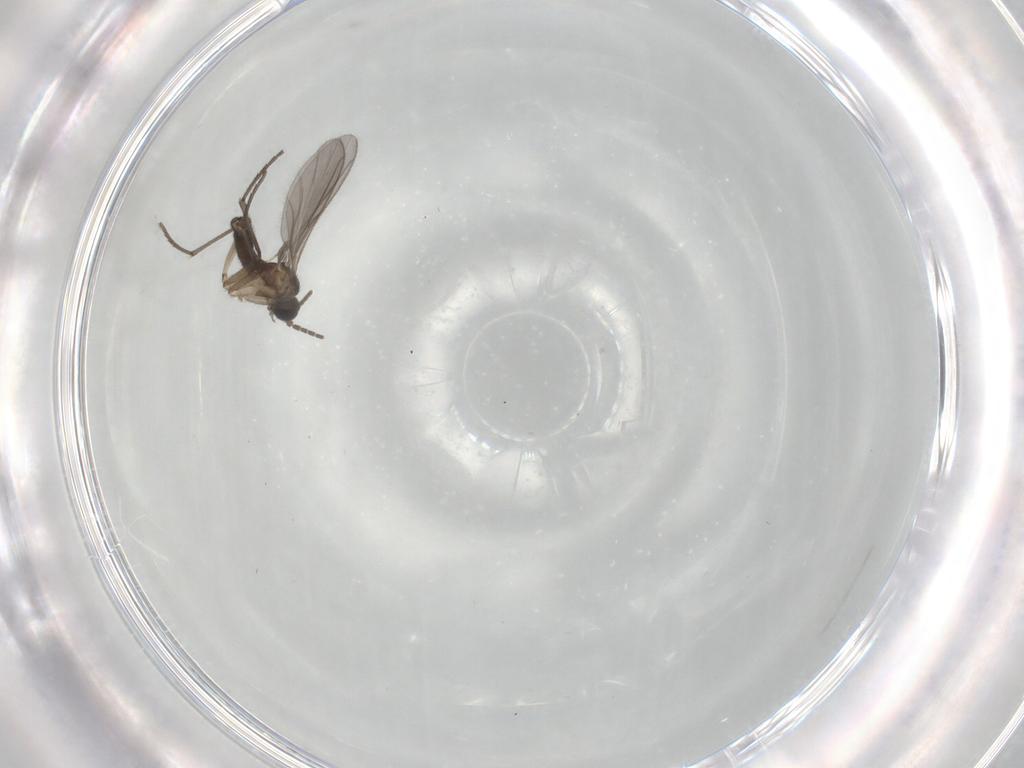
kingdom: Animalia
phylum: Arthropoda
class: Insecta
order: Diptera
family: Sciaridae
